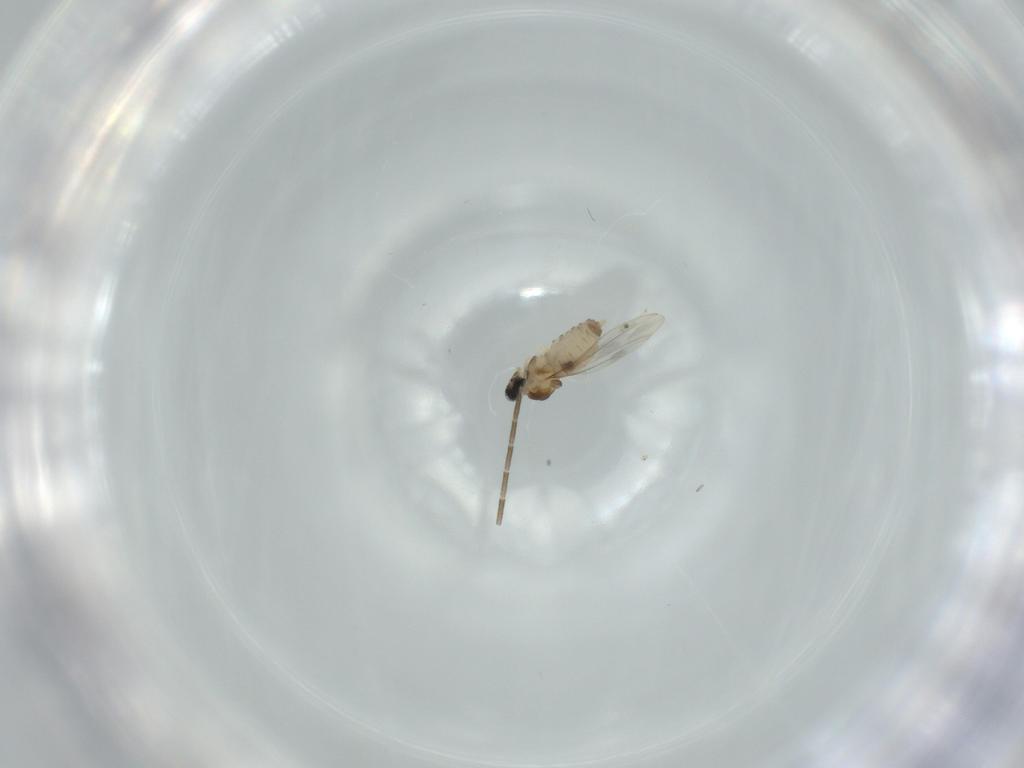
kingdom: Animalia
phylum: Arthropoda
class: Insecta
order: Diptera
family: Cecidomyiidae
